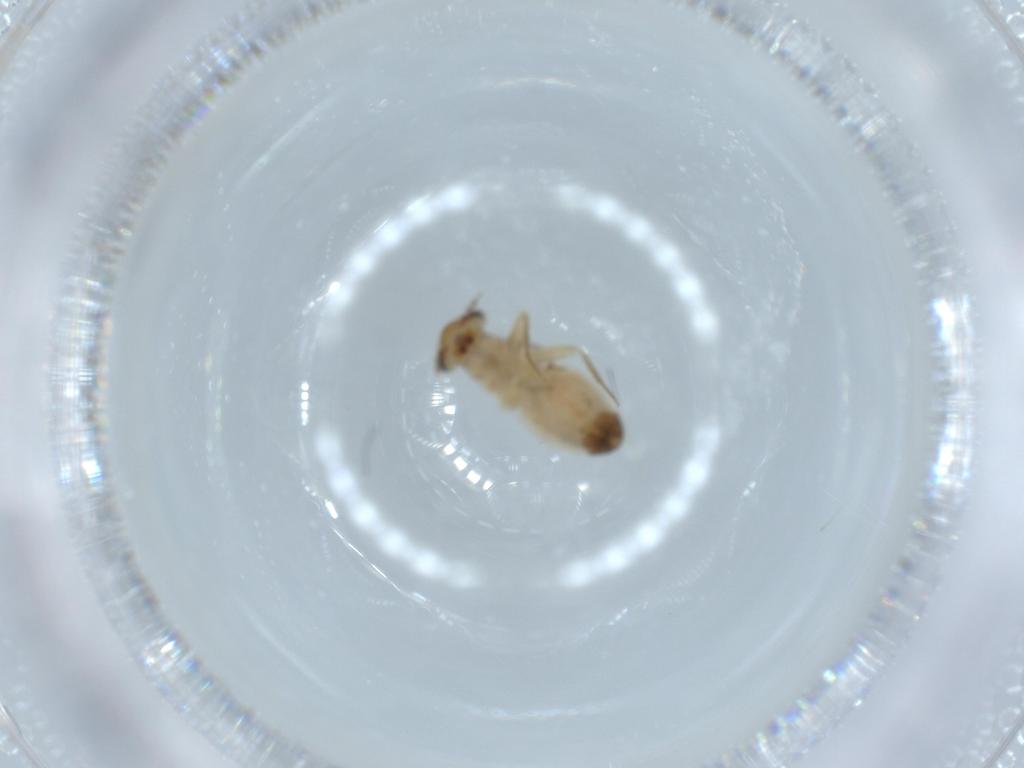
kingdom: Animalia
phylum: Arthropoda
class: Insecta
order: Psocodea
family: Lepidopsocidae
